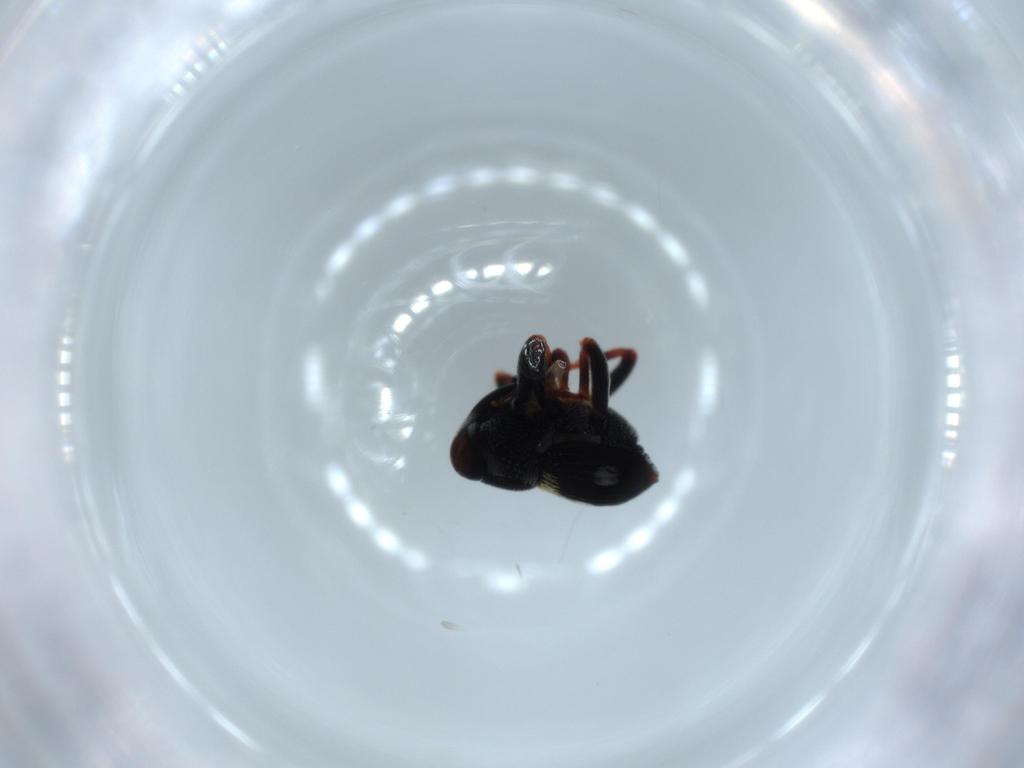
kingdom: Animalia
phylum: Arthropoda
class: Insecta
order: Coleoptera
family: Curculionidae
